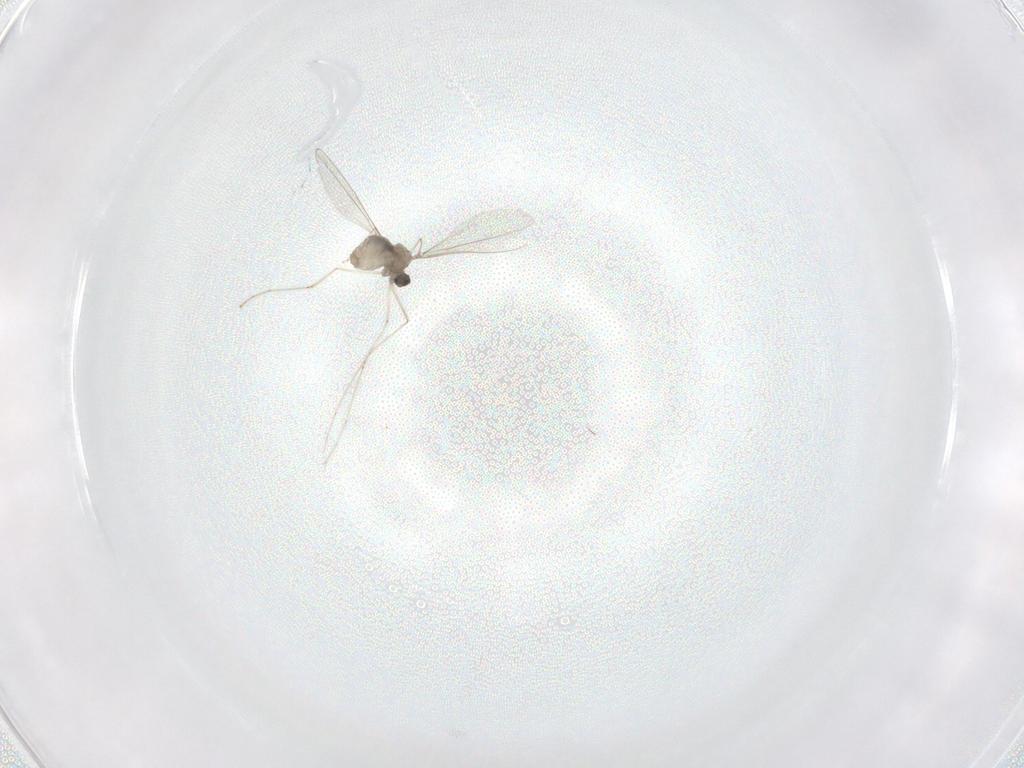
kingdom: Animalia
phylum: Arthropoda
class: Insecta
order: Diptera
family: Cecidomyiidae
